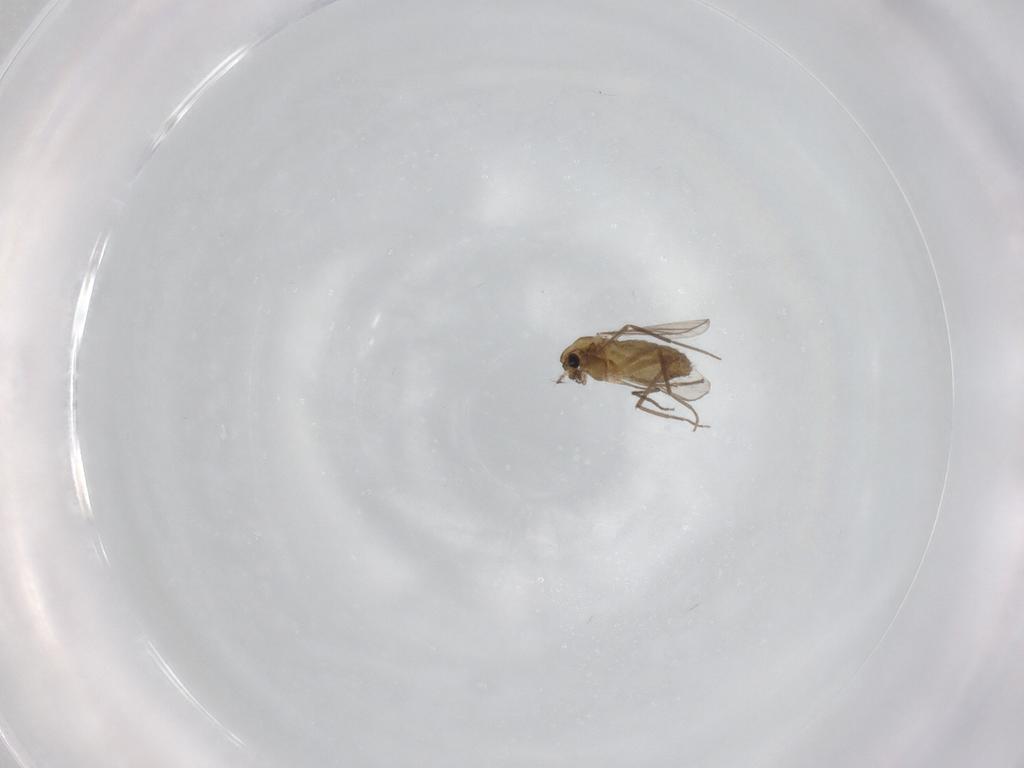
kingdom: Animalia
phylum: Arthropoda
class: Insecta
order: Diptera
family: Chironomidae
